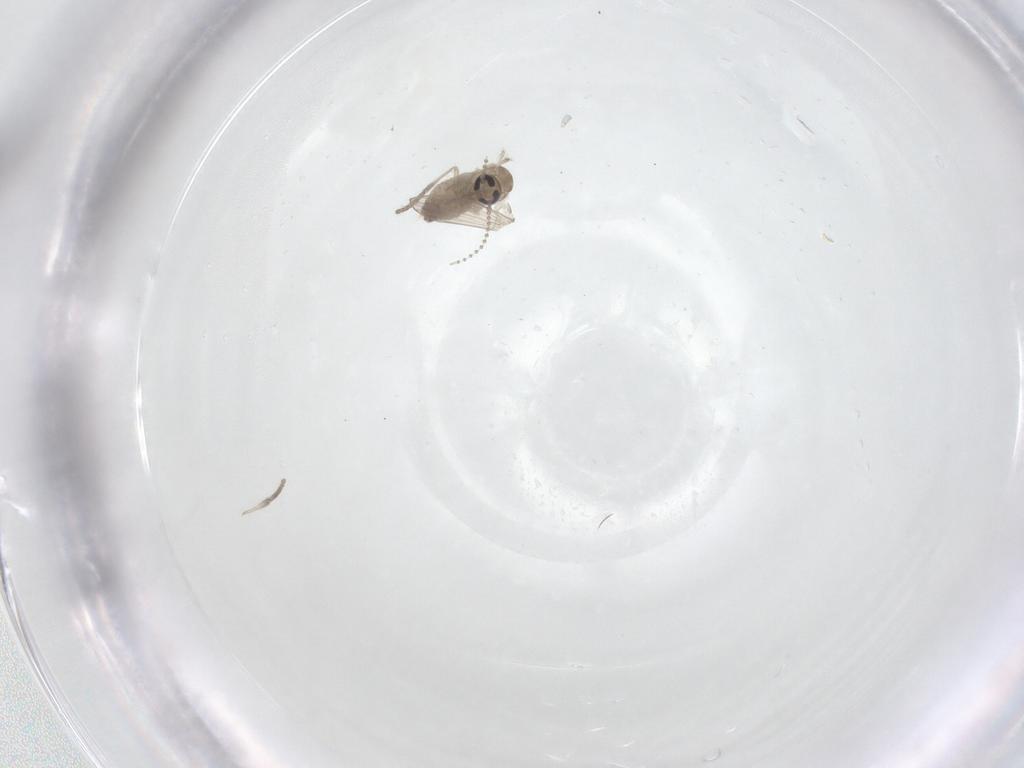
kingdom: Animalia
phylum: Arthropoda
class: Insecta
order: Diptera
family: Psychodidae
